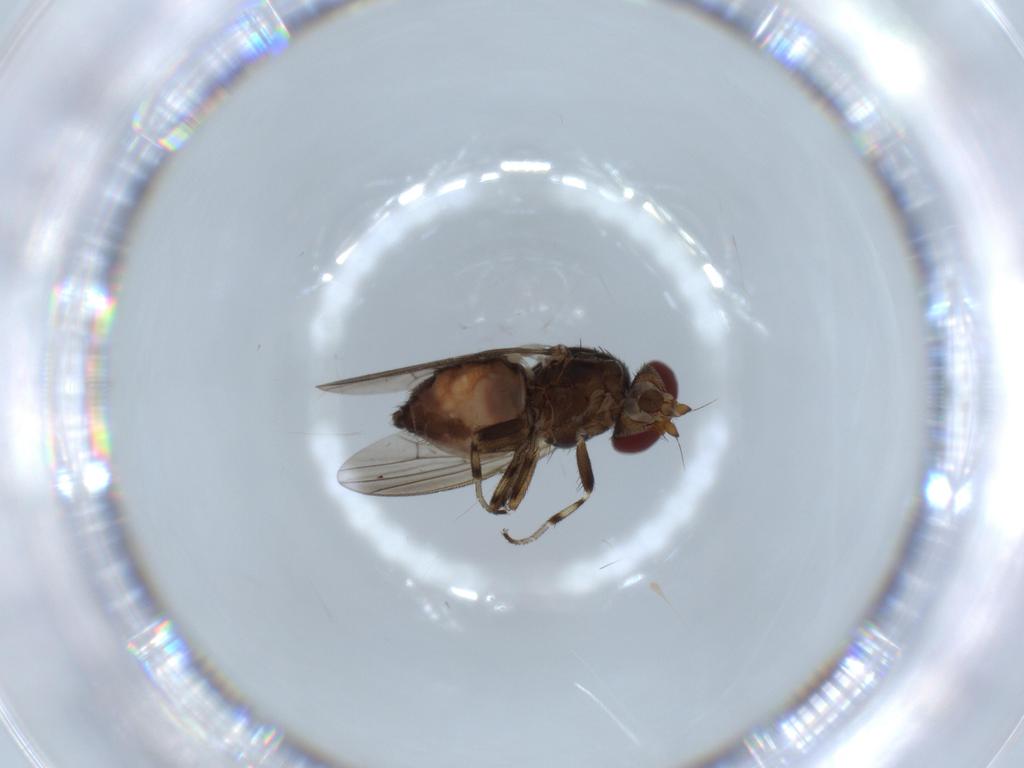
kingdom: Animalia
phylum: Arthropoda
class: Insecta
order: Diptera
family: Heleomyzidae
